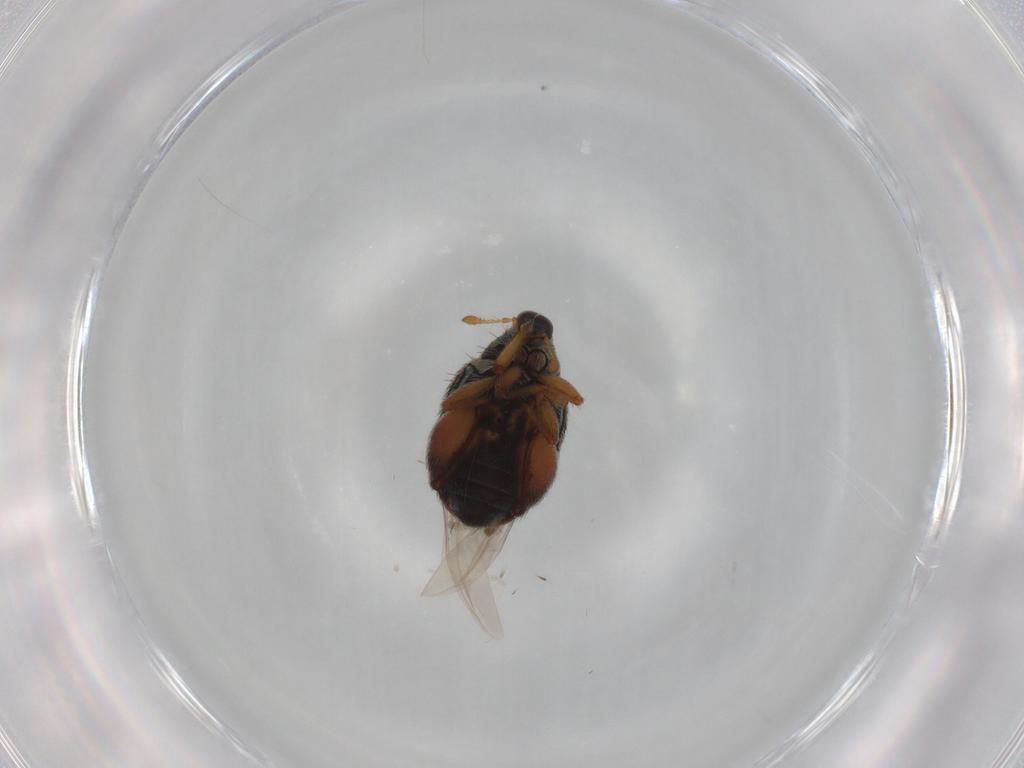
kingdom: Animalia
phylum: Arthropoda
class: Insecta
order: Coleoptera
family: Curculionidae
